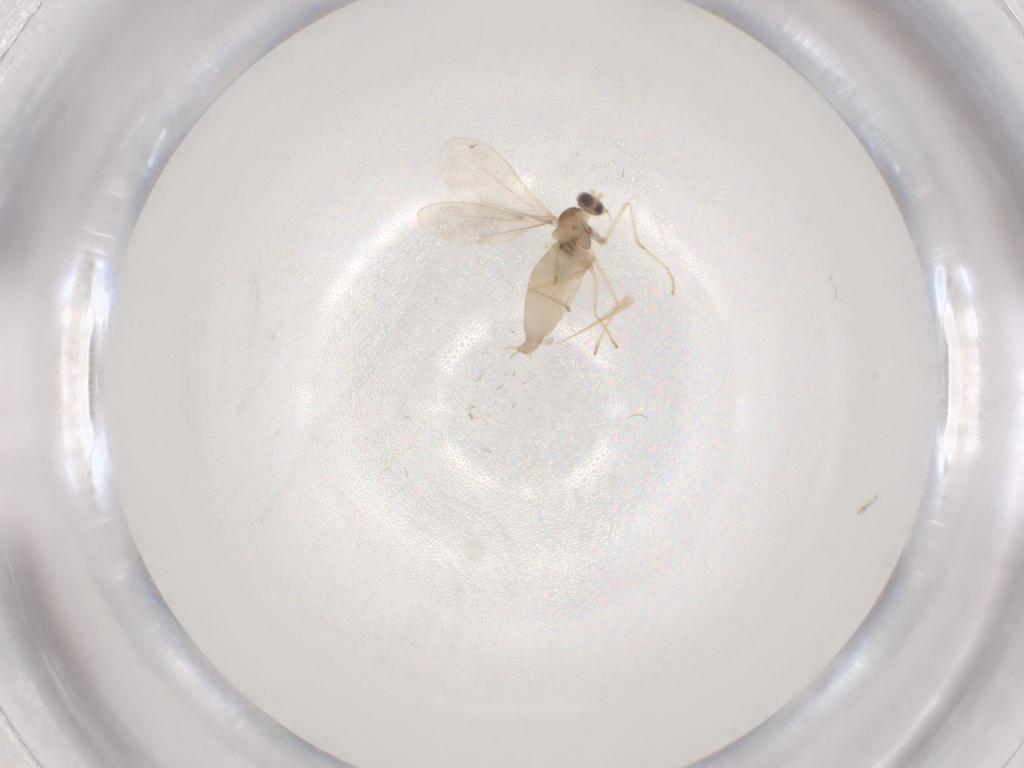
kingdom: Animalia
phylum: Arthropoda
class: Insecta
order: Diptera
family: Cecidomyiidae
